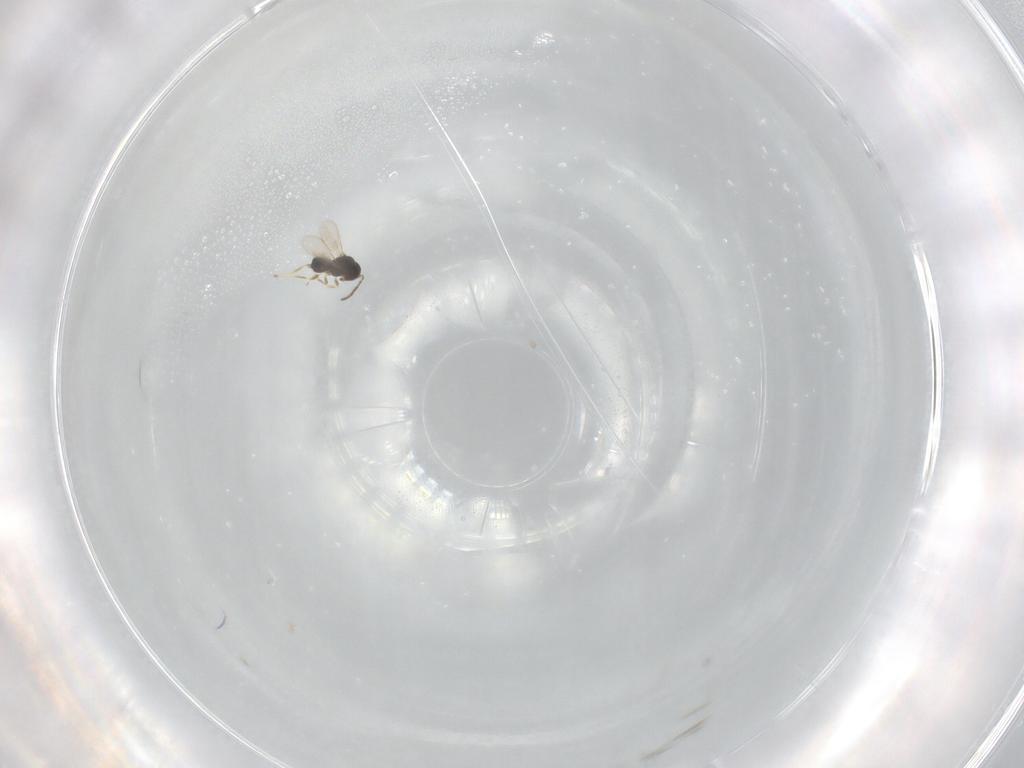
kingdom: Animalia
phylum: Arthropoda
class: Insecta
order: Hymenoptera
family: Scelionidae
